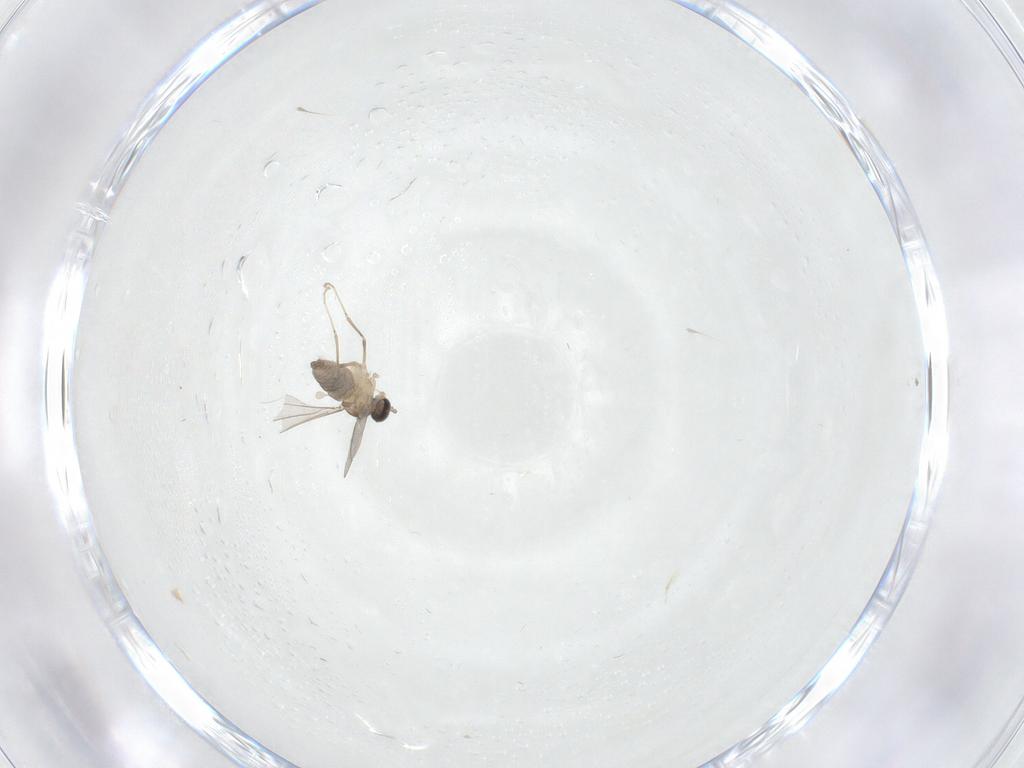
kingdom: Animalia
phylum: Arthropoda
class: Insecta
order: Diptera
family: Cecidomyiidae
